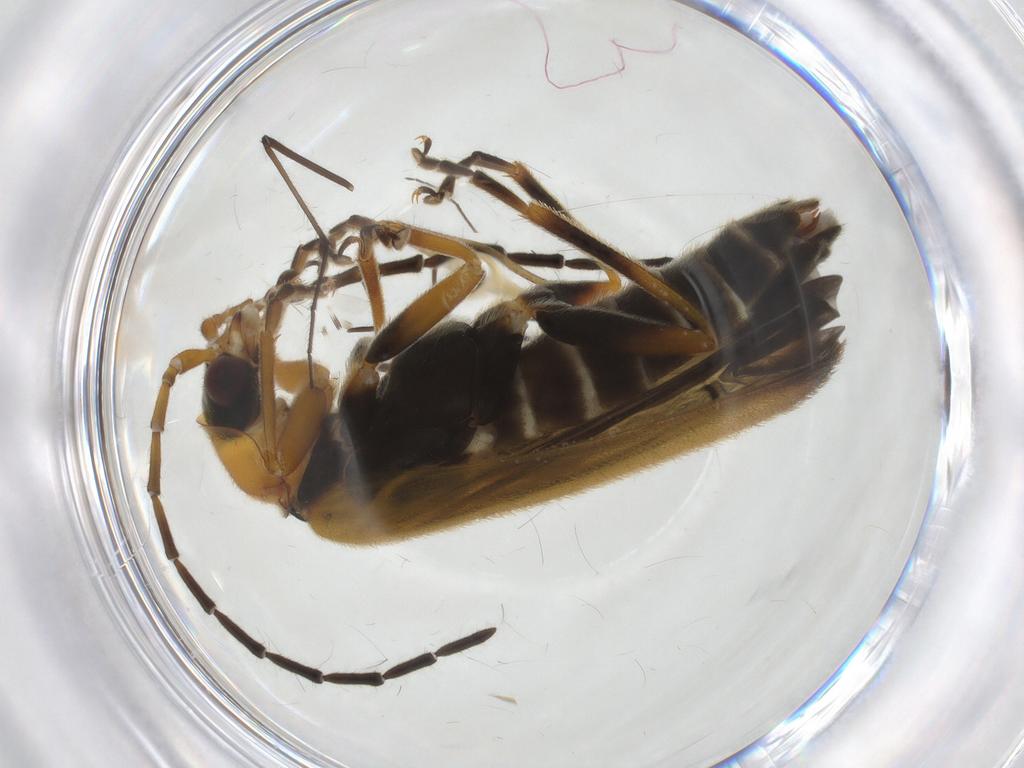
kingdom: Animalia
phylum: Arthropoda
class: Insecta
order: Coleoptera
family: Cantharidae
